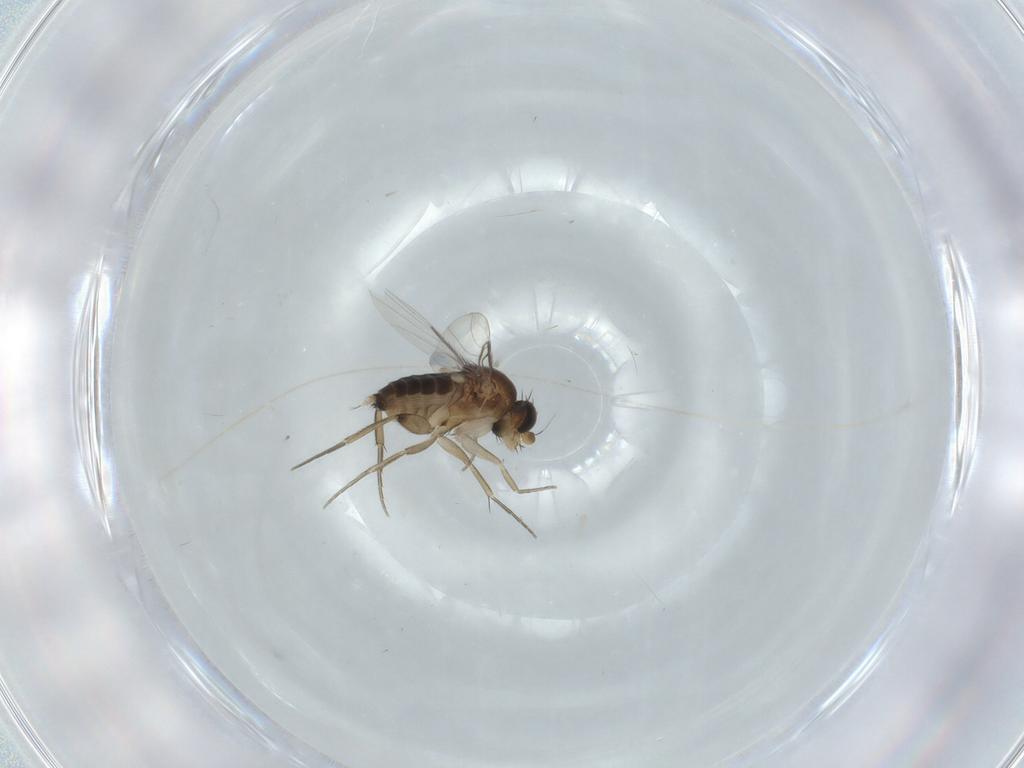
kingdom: Animalia
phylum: Arthropoda
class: Insecta
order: Diptera
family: Phoridae
